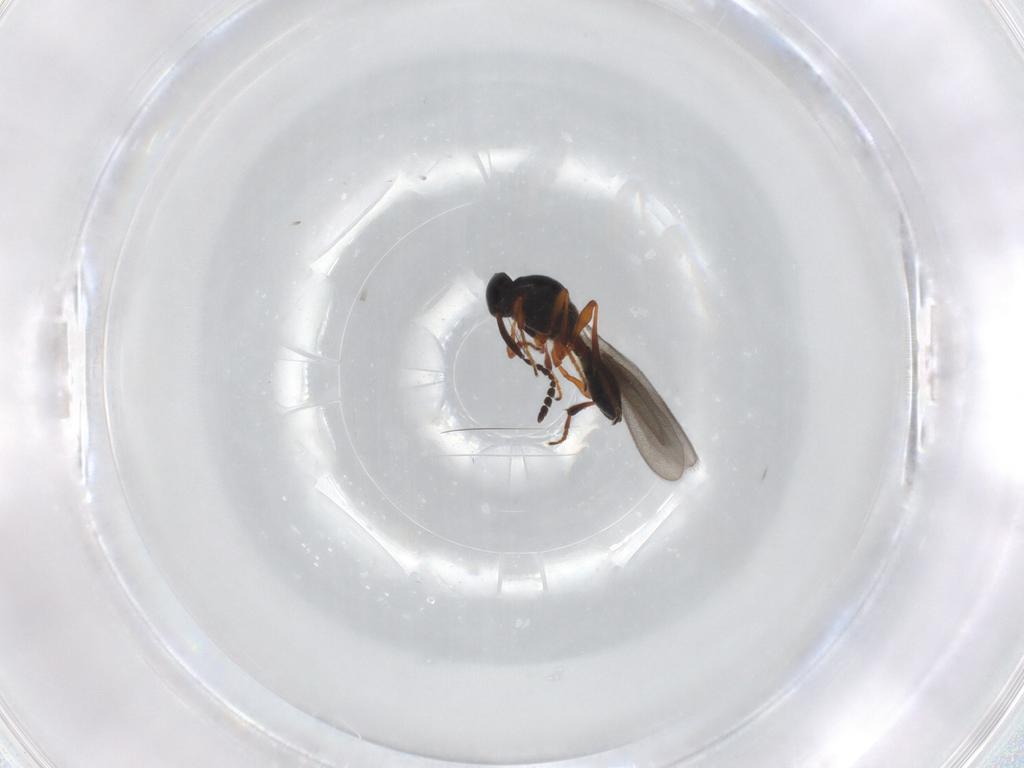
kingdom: Animalia
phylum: Arthropoda
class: Insecta
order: Hymenoptera
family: Platygastridae
